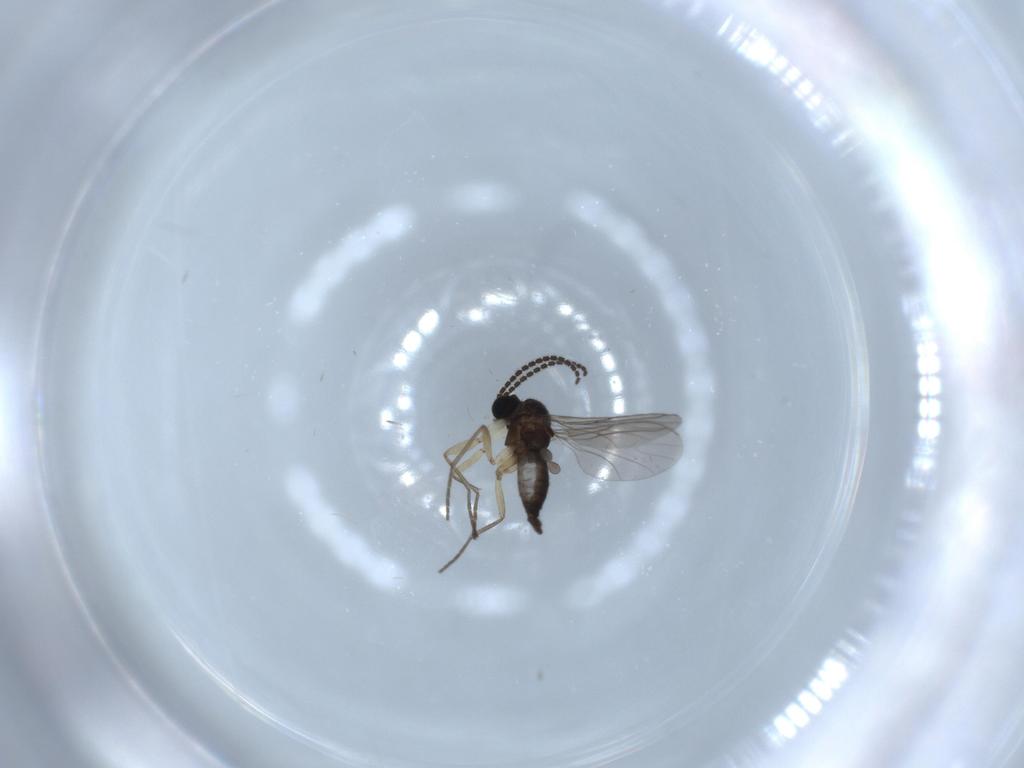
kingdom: Animalia
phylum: Arthropoda
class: Insecta
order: Diptera
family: Sciaridae
